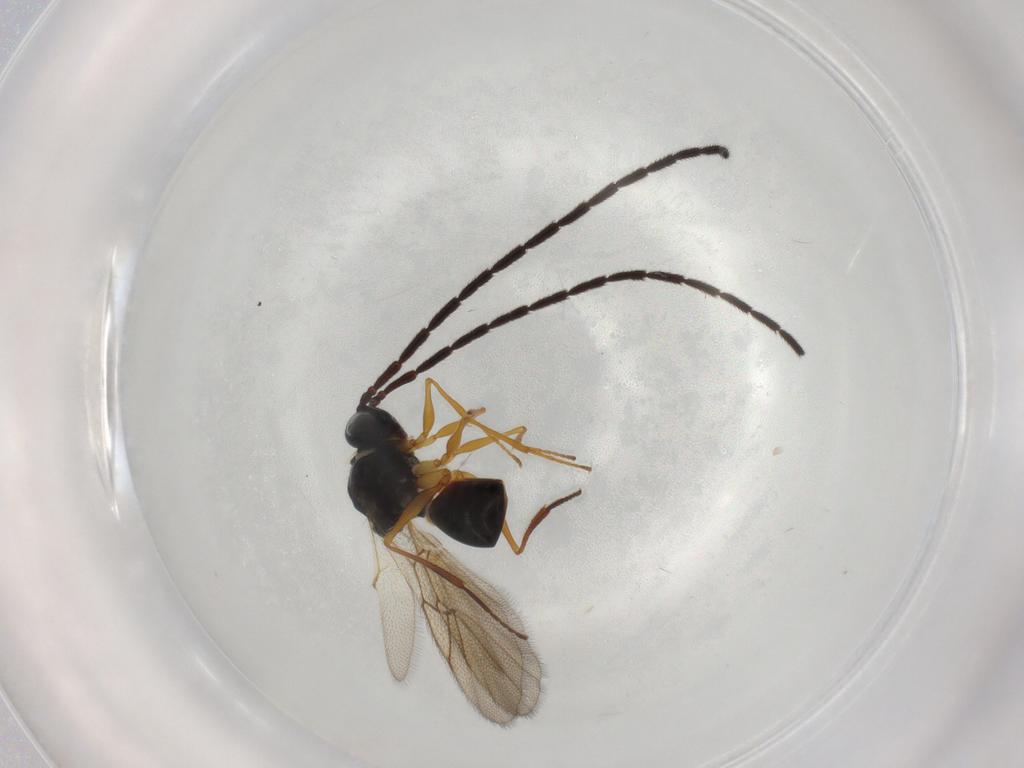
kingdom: Animalia
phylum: Arthropoda
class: Insecta
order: Hymenoptera
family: Figitidae
